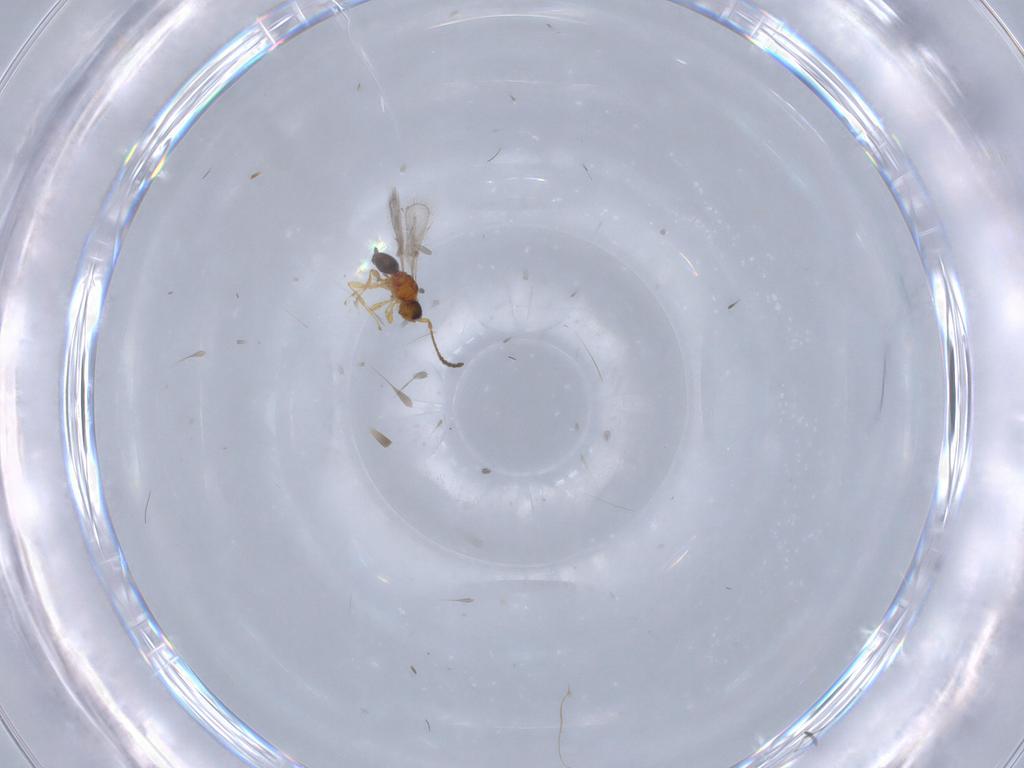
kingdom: Animalia
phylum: Arthropoda
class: Insecta
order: Hymenoptera
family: Diapriidae
